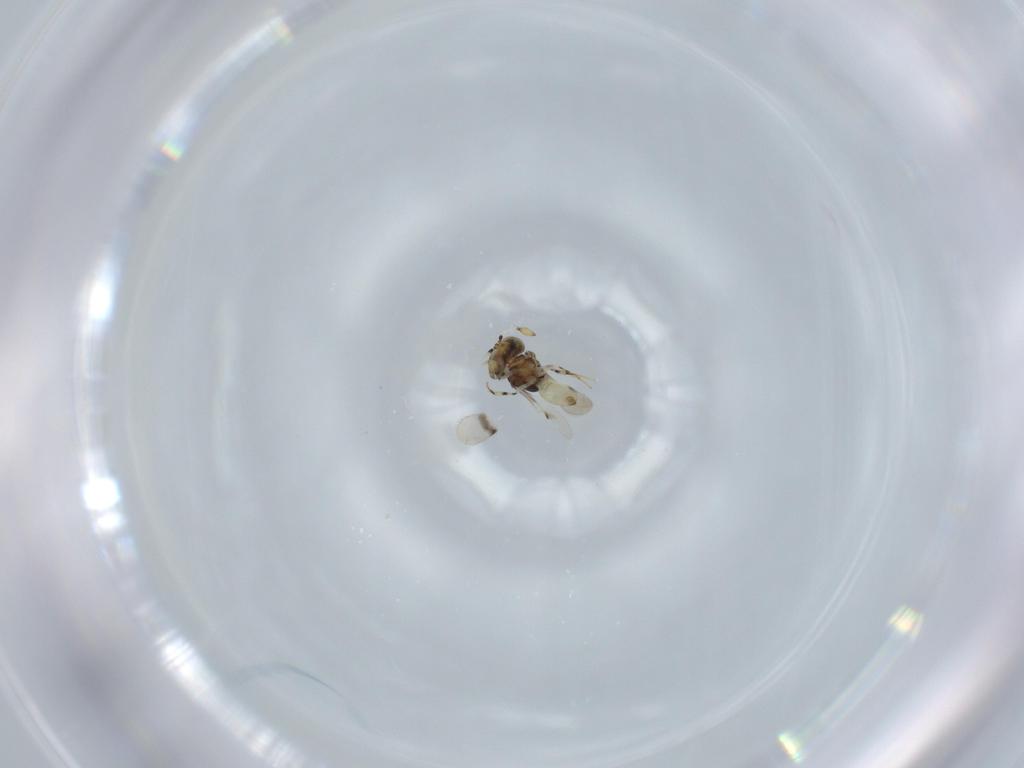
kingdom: Animalia
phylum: Arthropoda
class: Insecta
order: Hymenoptera
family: Scelionidae
